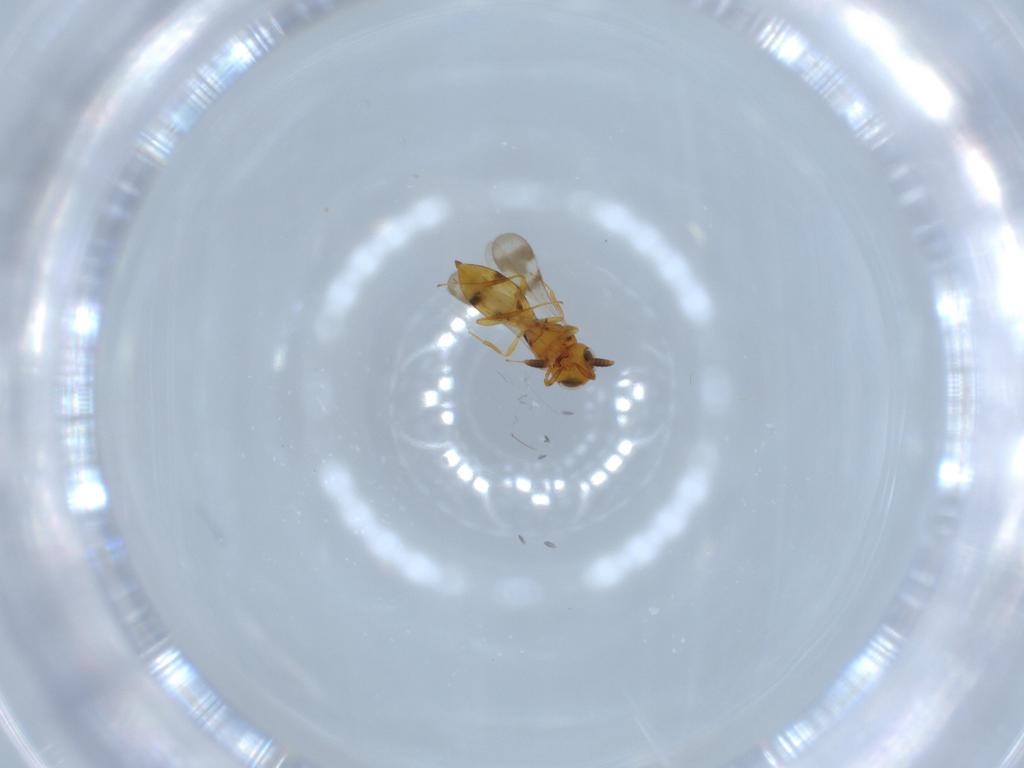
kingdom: Animalia
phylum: Arthropoda
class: Insecta
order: Hymenoptera
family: Scelionidae
